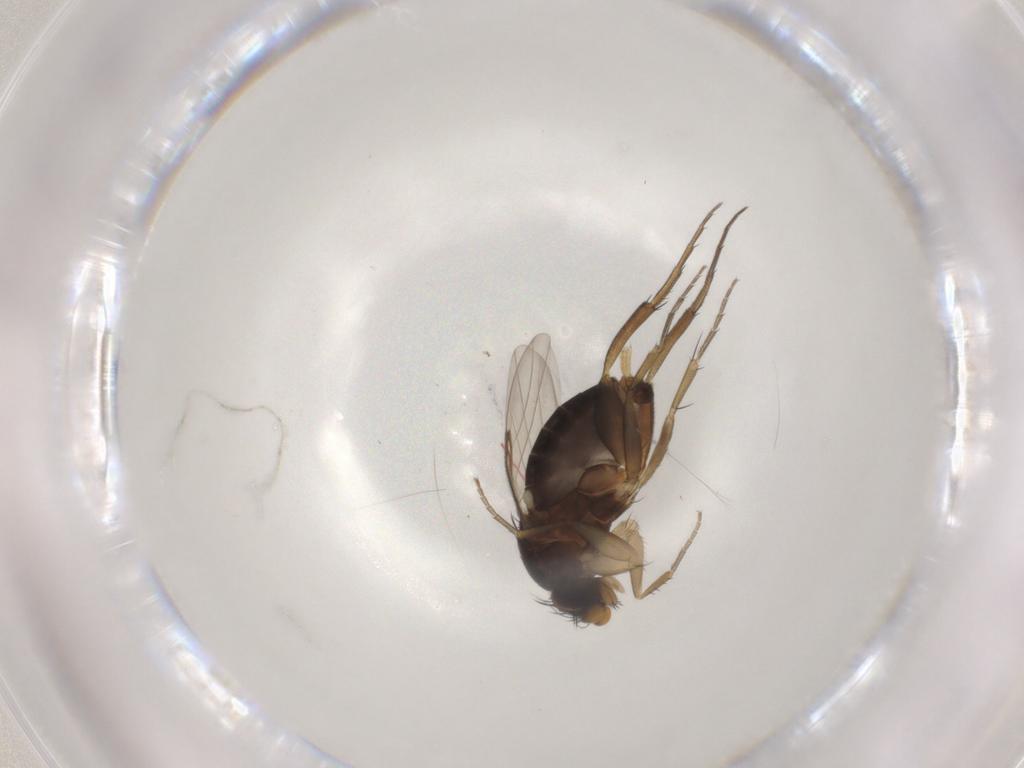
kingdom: Animalia
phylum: Arthropoda
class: Insecta
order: Diptera
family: Phoridae
